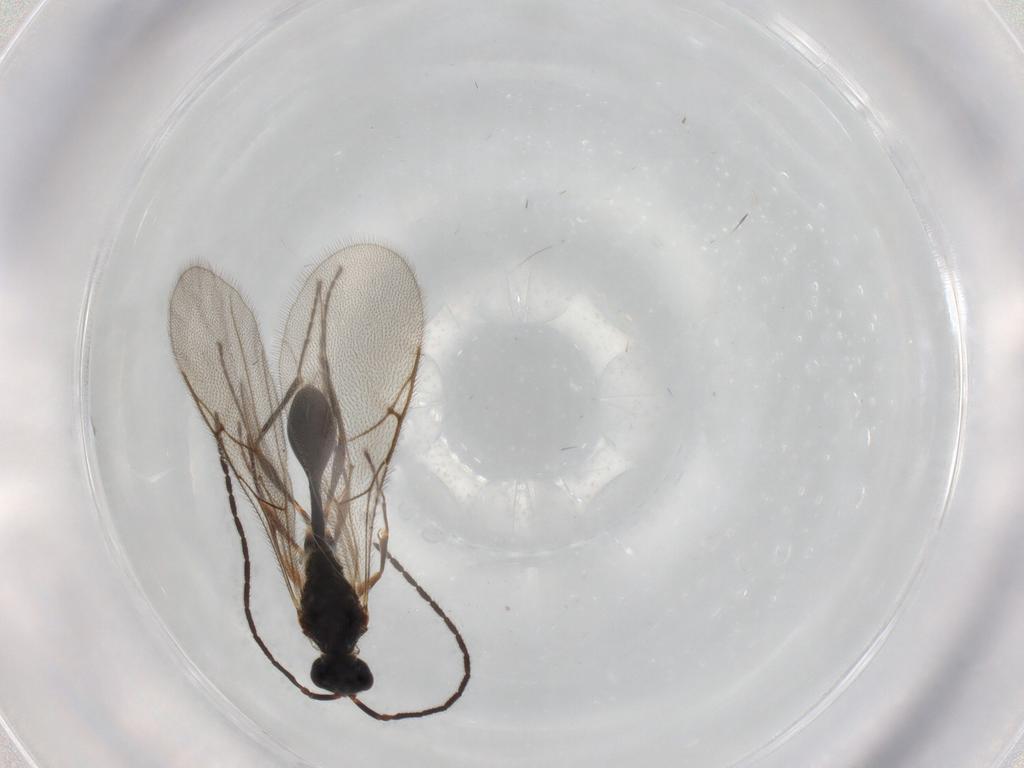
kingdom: Animalia
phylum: Arthropoda
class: Insecta
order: Hymenoptera
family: Diapriidae
